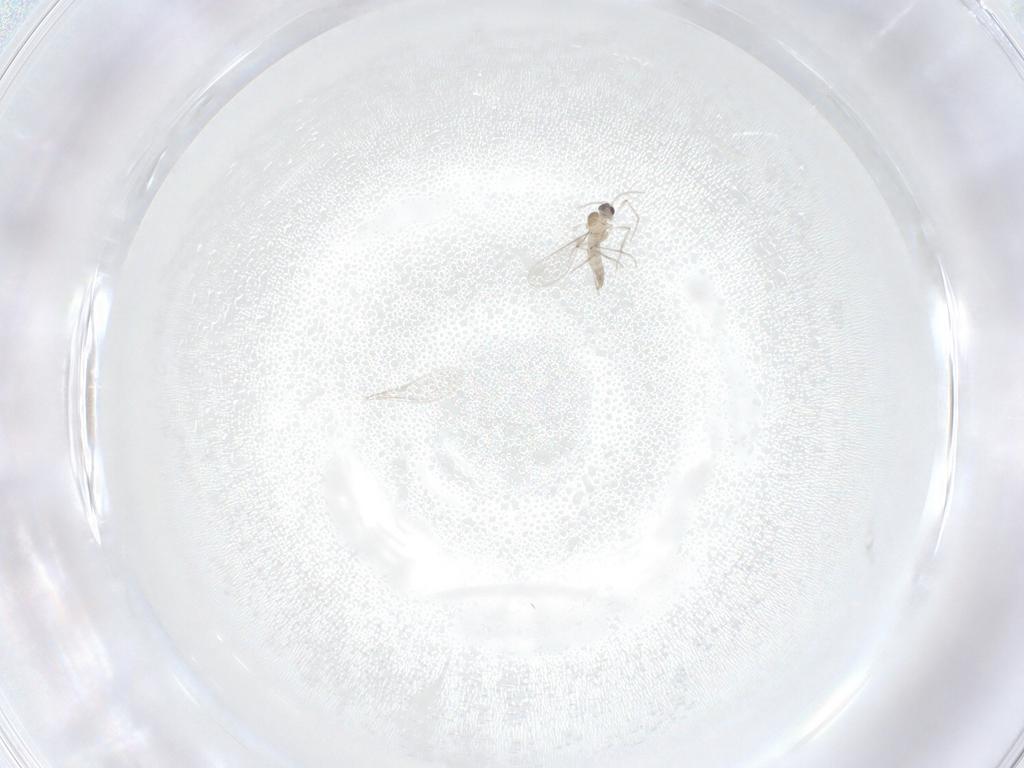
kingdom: Animalia
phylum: Arthropoda
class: Insecta
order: Diptera
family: Cecidomyiidae
